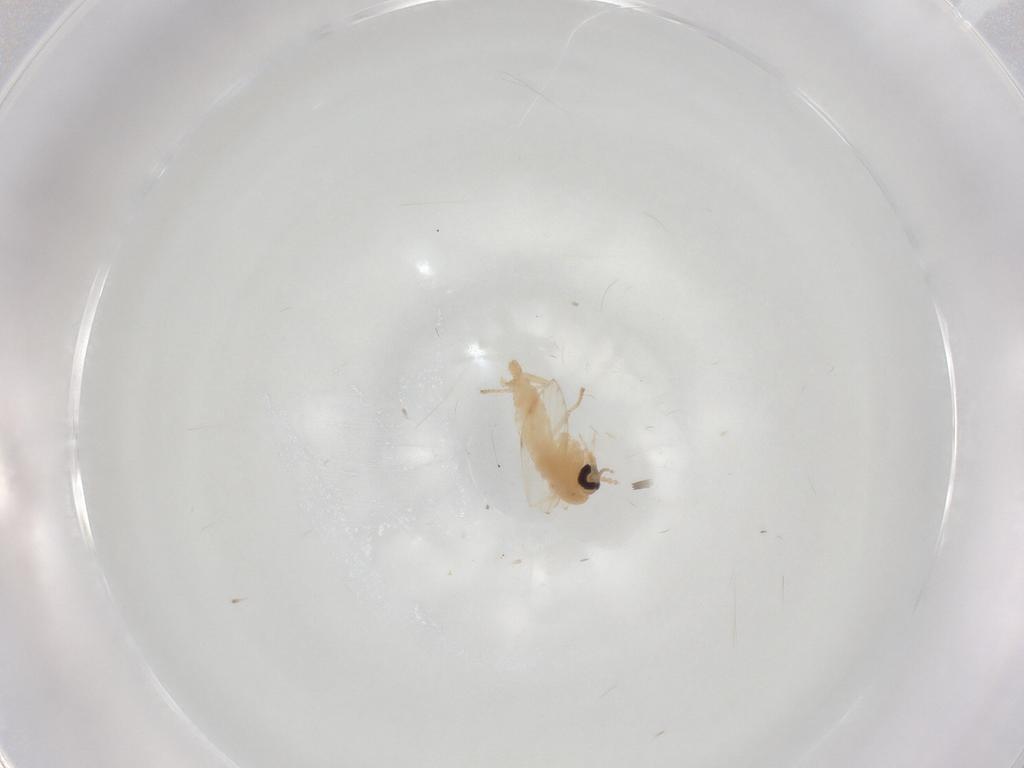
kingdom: Animalia
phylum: Arthropoda
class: Insecta
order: Diptera
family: Psychodidae
